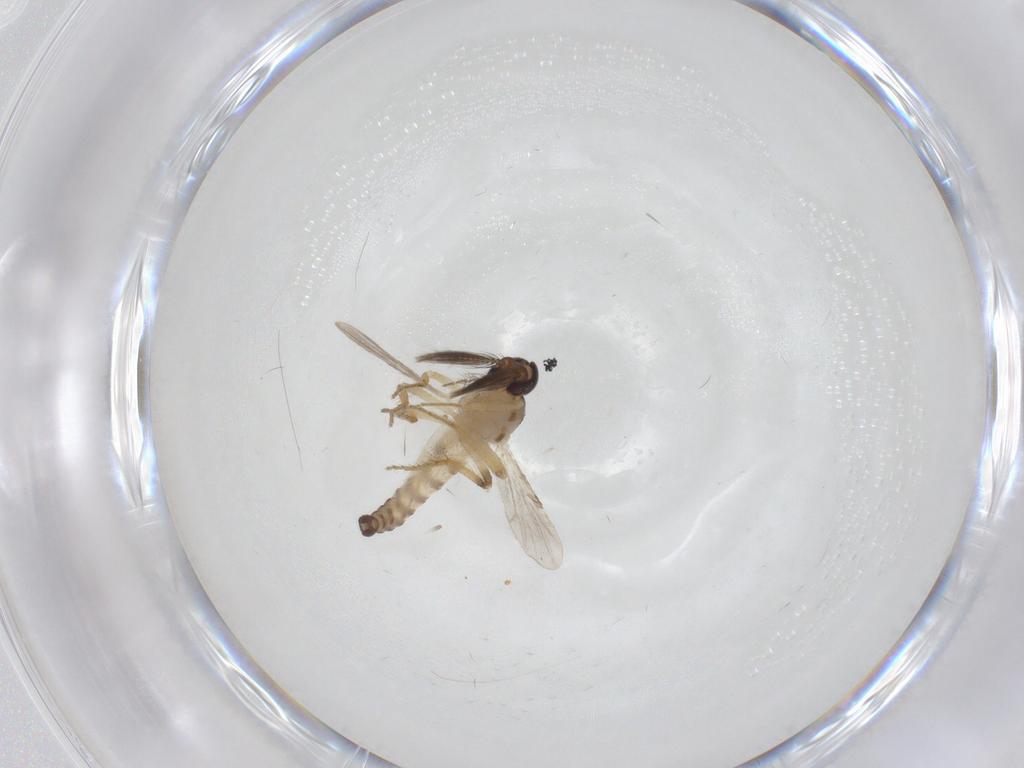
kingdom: Animalia
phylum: Arthropoda
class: Insecta
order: Diptera
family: Ceratopogonidae
